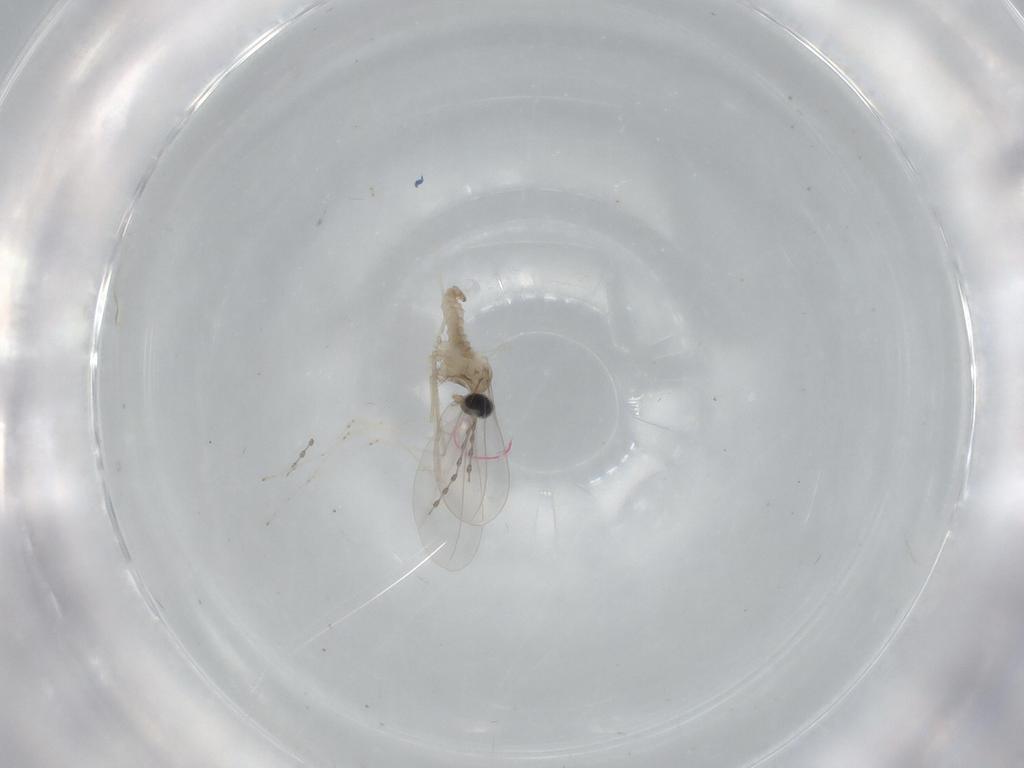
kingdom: Animalia
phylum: Arthropoda
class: Insecta
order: Diptera
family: Cecidomyiidae
